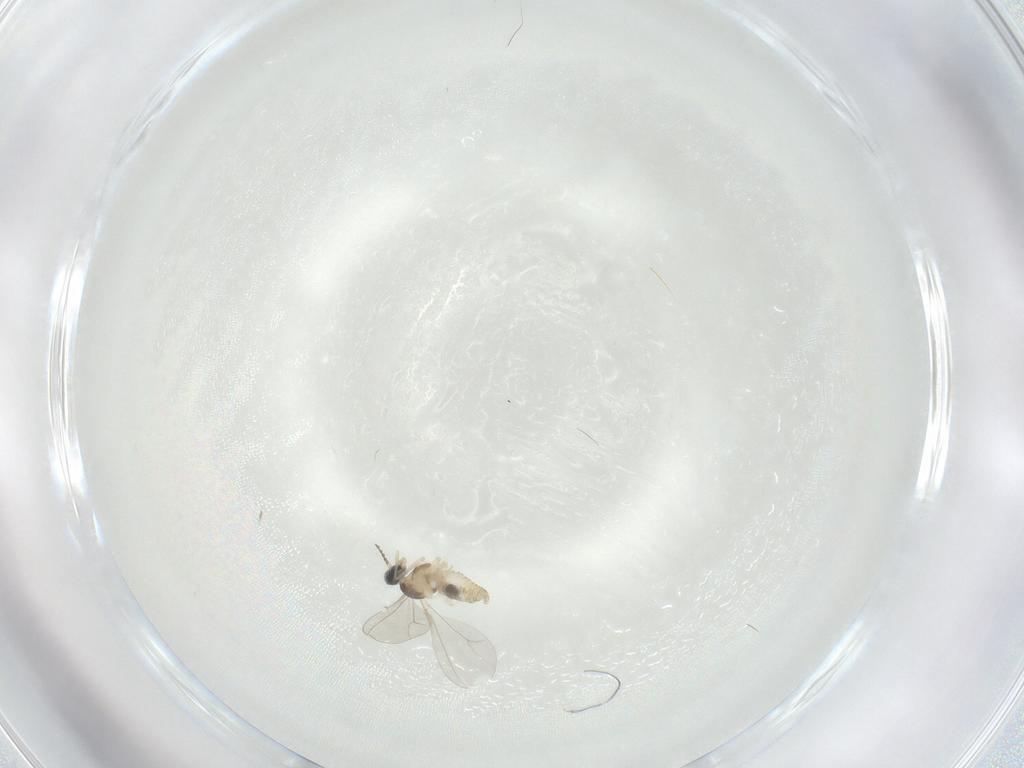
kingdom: Animalia
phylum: Arthropoda
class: Insecta
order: Diptera
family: Cecidomyiidae
